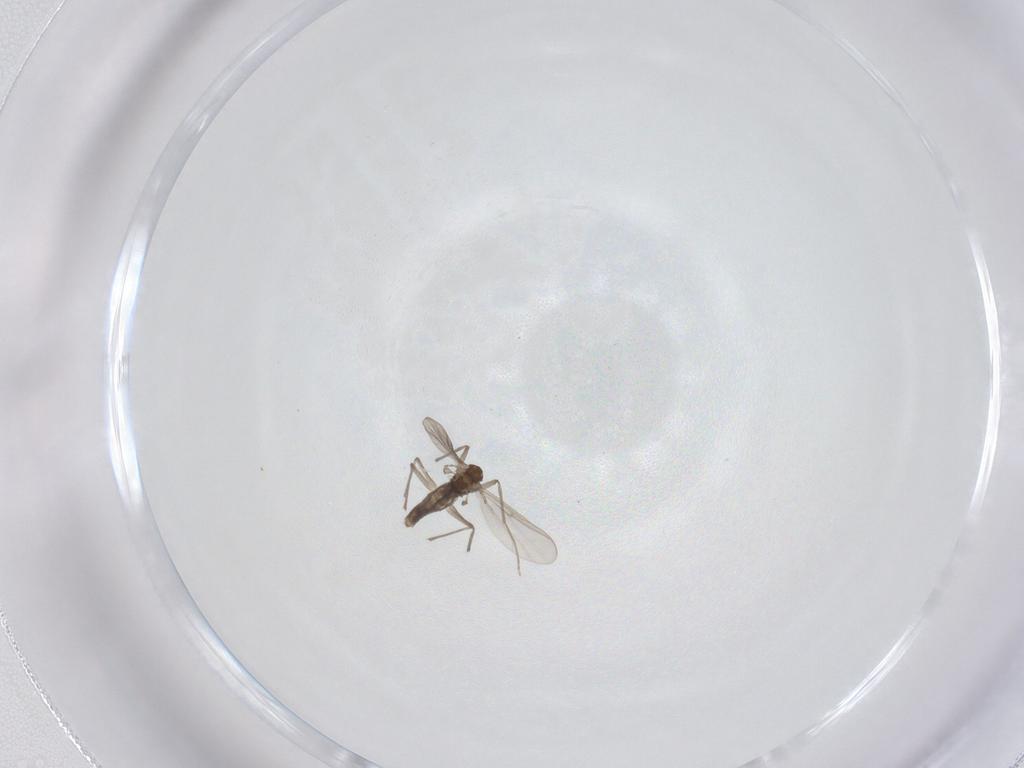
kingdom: Animalia
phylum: Arthropoda
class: Insecta
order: Diptera
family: Chironomidae
